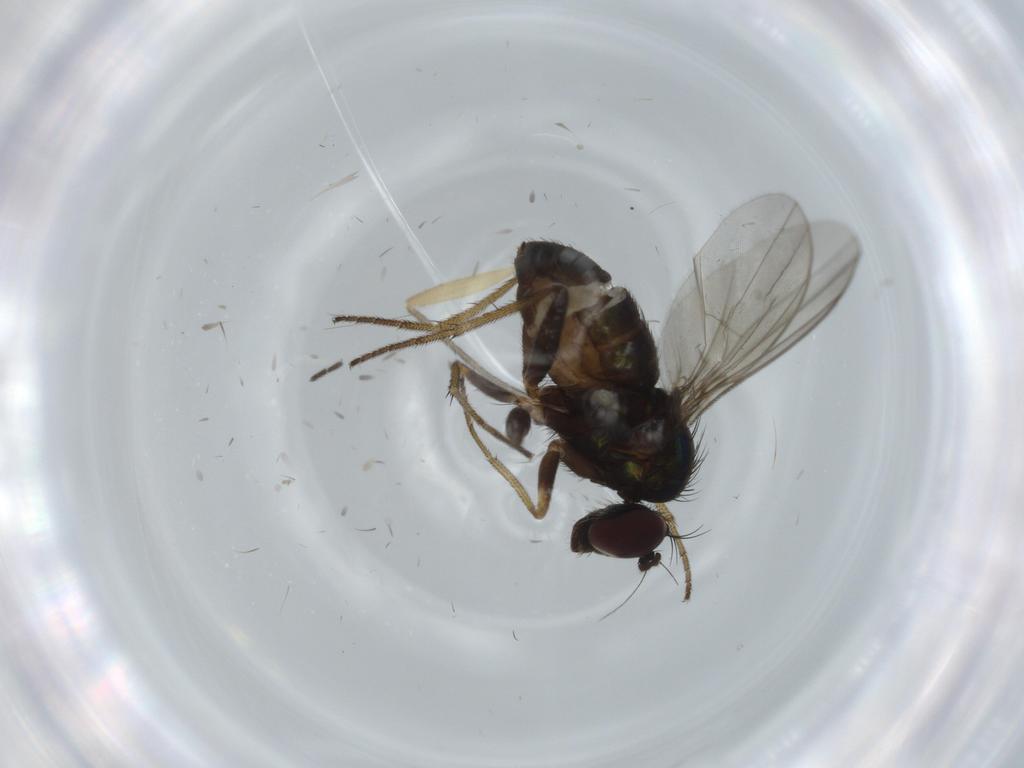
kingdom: Animalia
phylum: Arthropoda
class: Insecta
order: Diptera
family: Sciaridae
